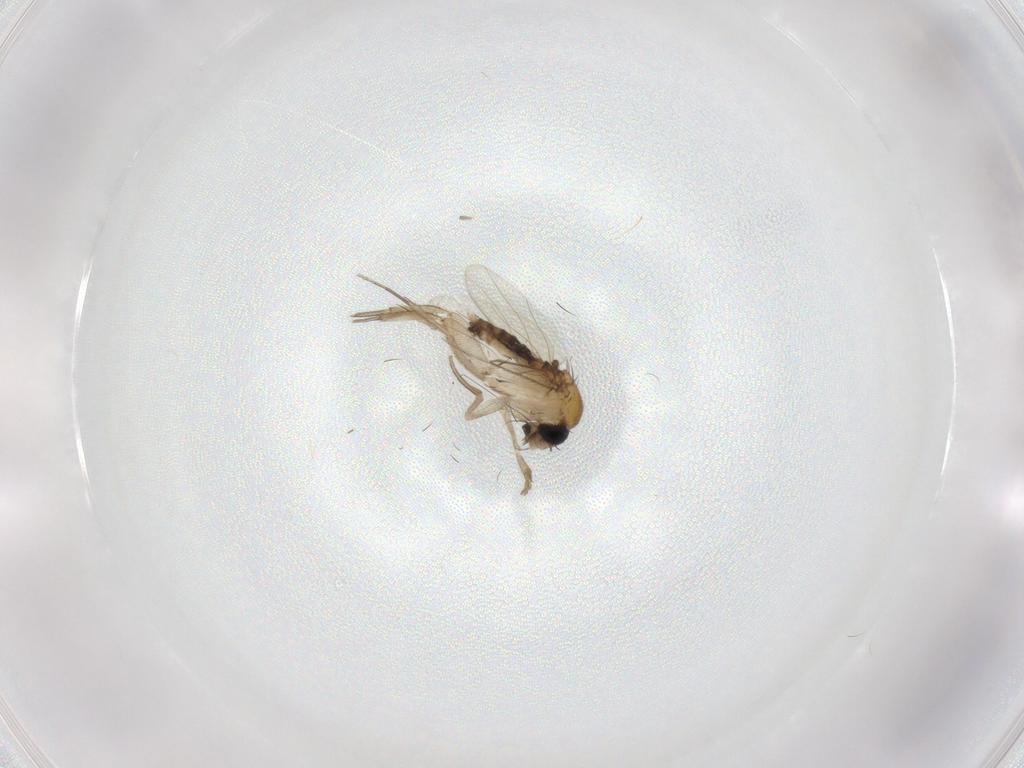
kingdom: Animalia
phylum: Arthropoda
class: Insecta
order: Diptera
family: Phoridae
